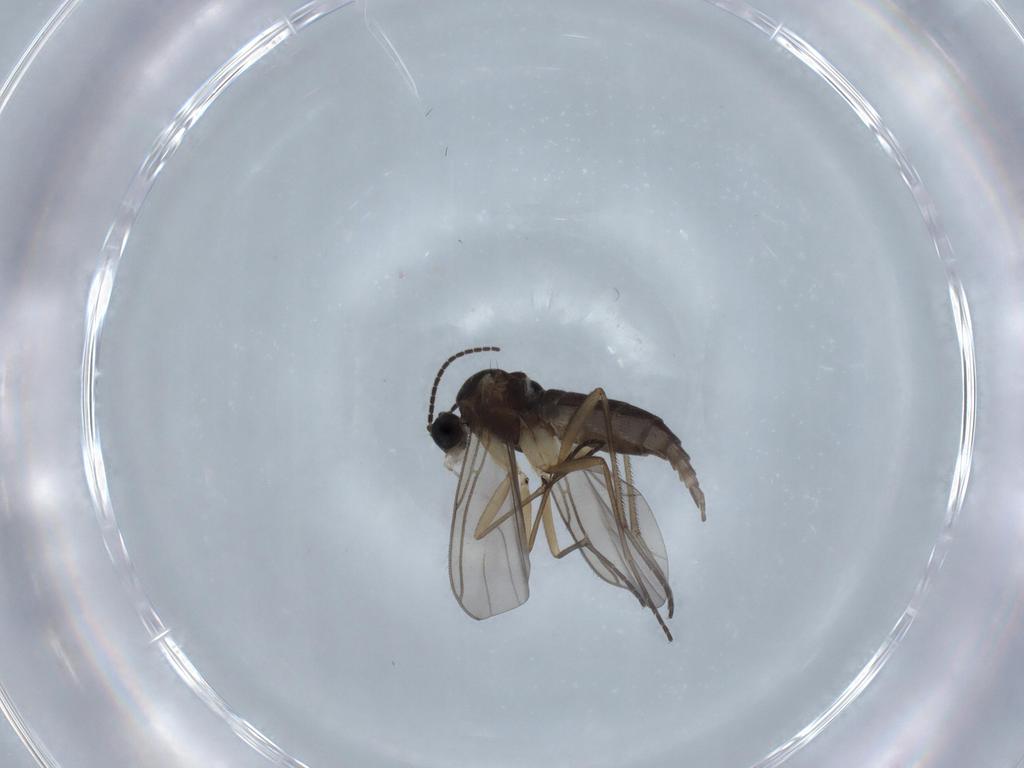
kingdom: Animalia
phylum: Arthropoda
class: Insecta
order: Diptera
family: Sciaridae
